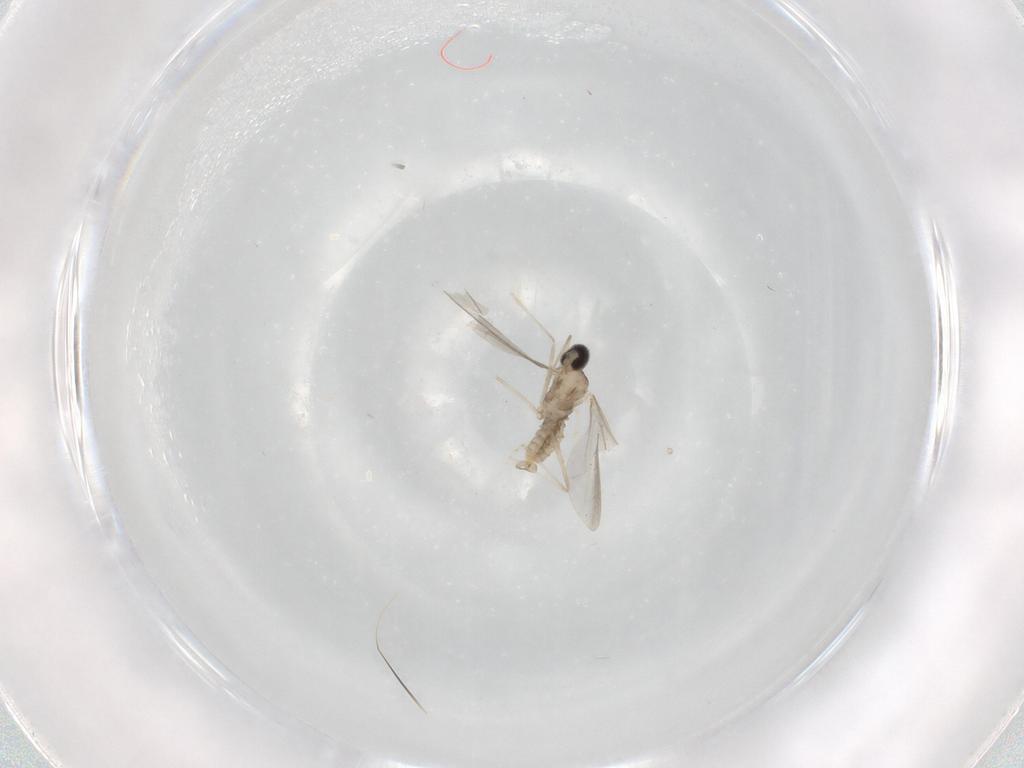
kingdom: Animalia
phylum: Arthropoda
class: Insecta
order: Diptera
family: Cecidomyiidae
